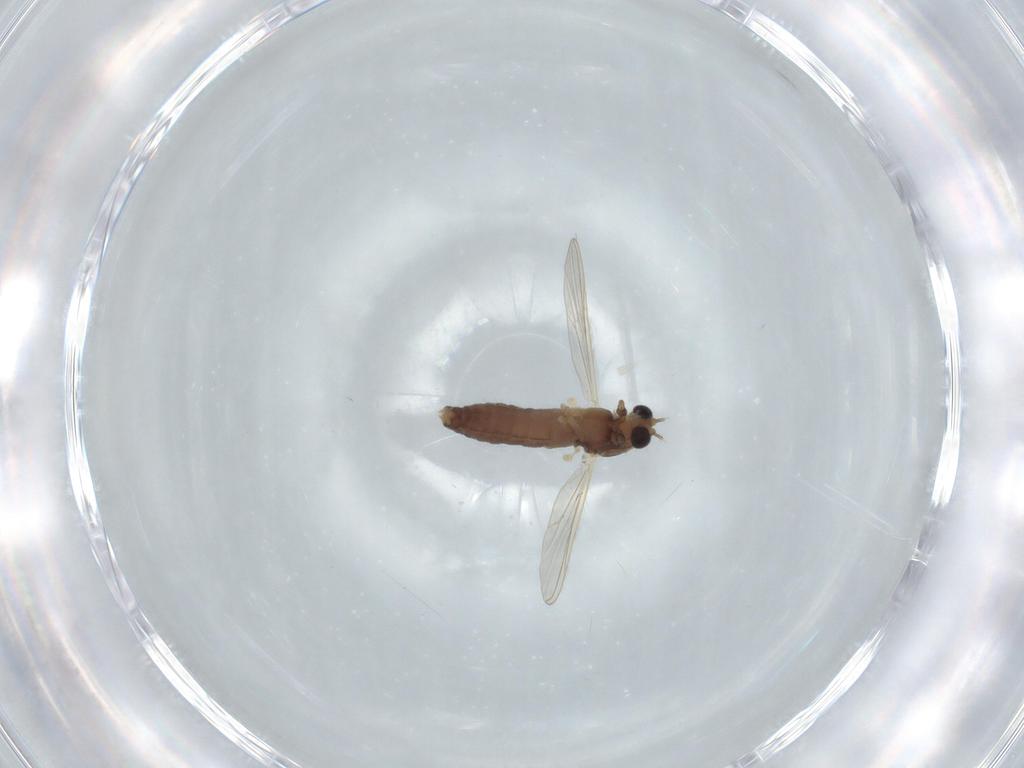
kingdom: Animalia
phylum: Arthropoda
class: Insecta
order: Diptera
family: Chironomidae
